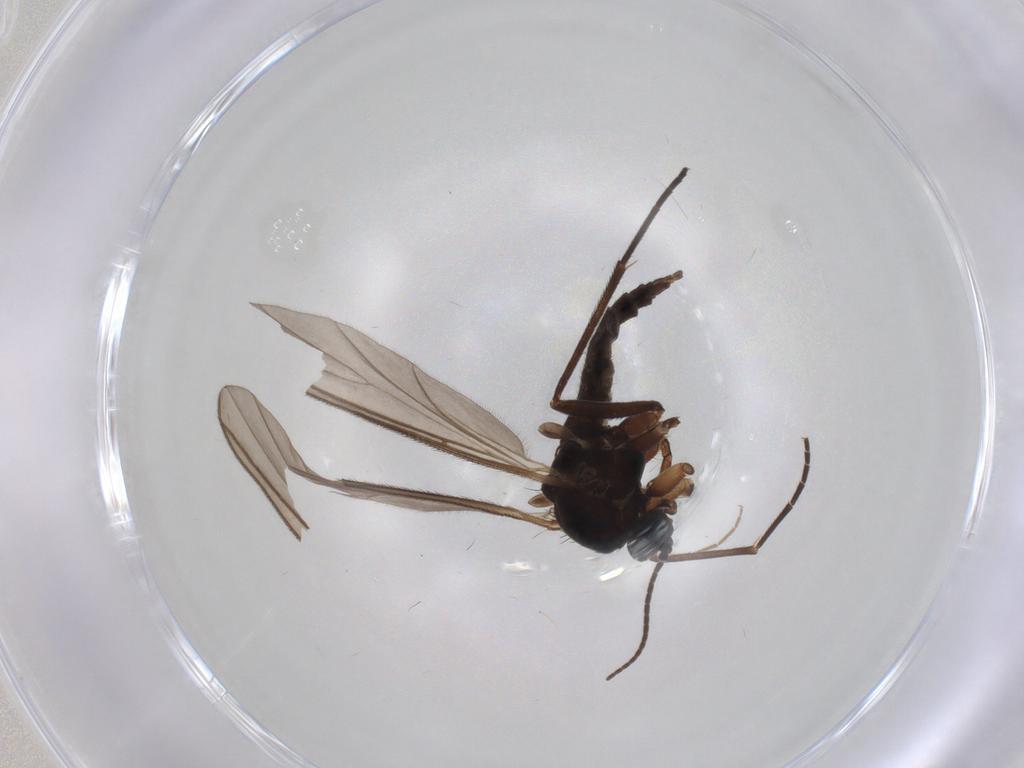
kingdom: Animalia
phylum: Arthropoda
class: Insecta
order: Diptera
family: Sciaridae
